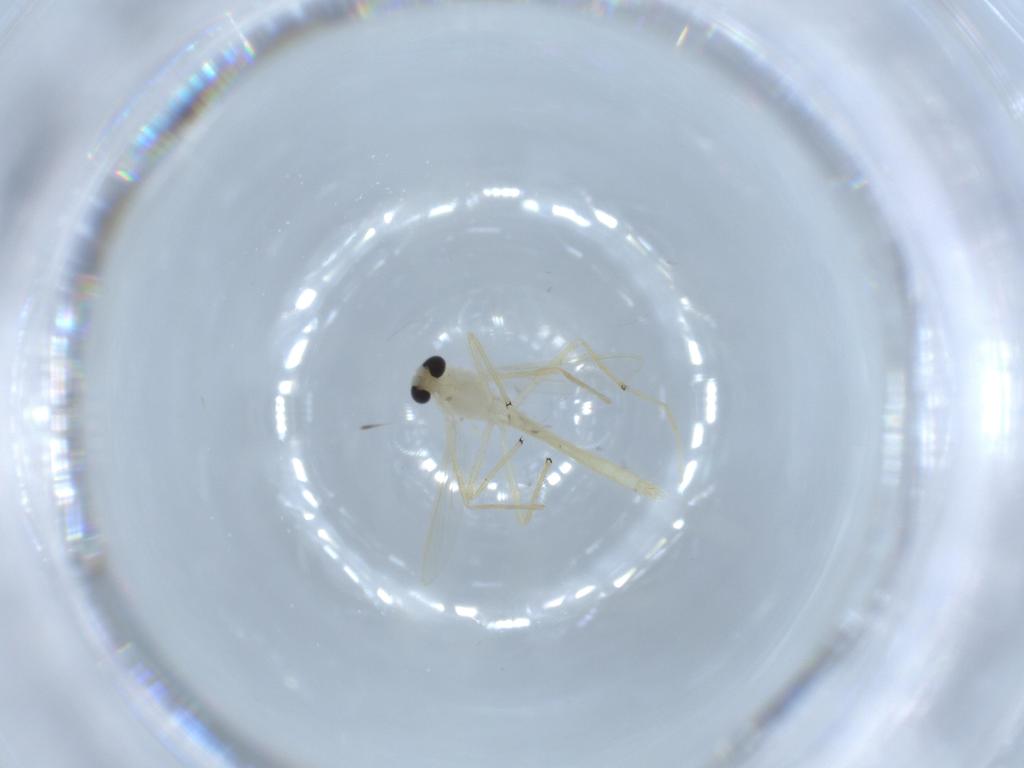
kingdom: Animalia
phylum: Arthropoda
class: Insecta
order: Diptera
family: Chironomidae
